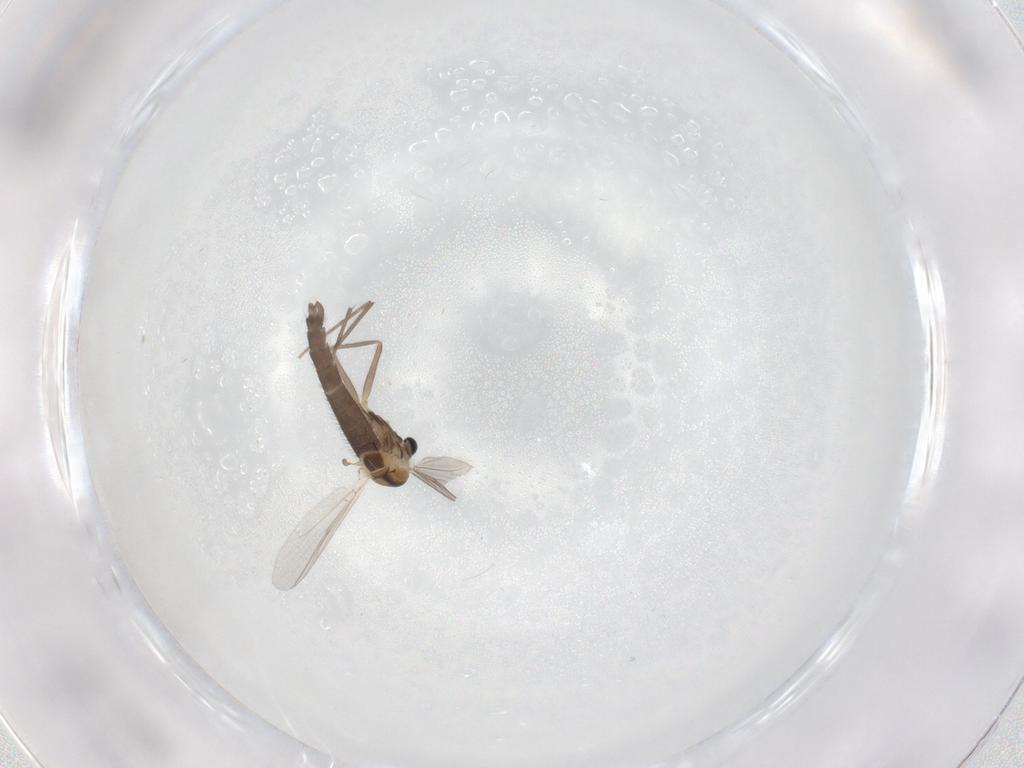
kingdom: Animalia
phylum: Arthropoda
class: Insecta
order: Diptera
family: Chironomidae
